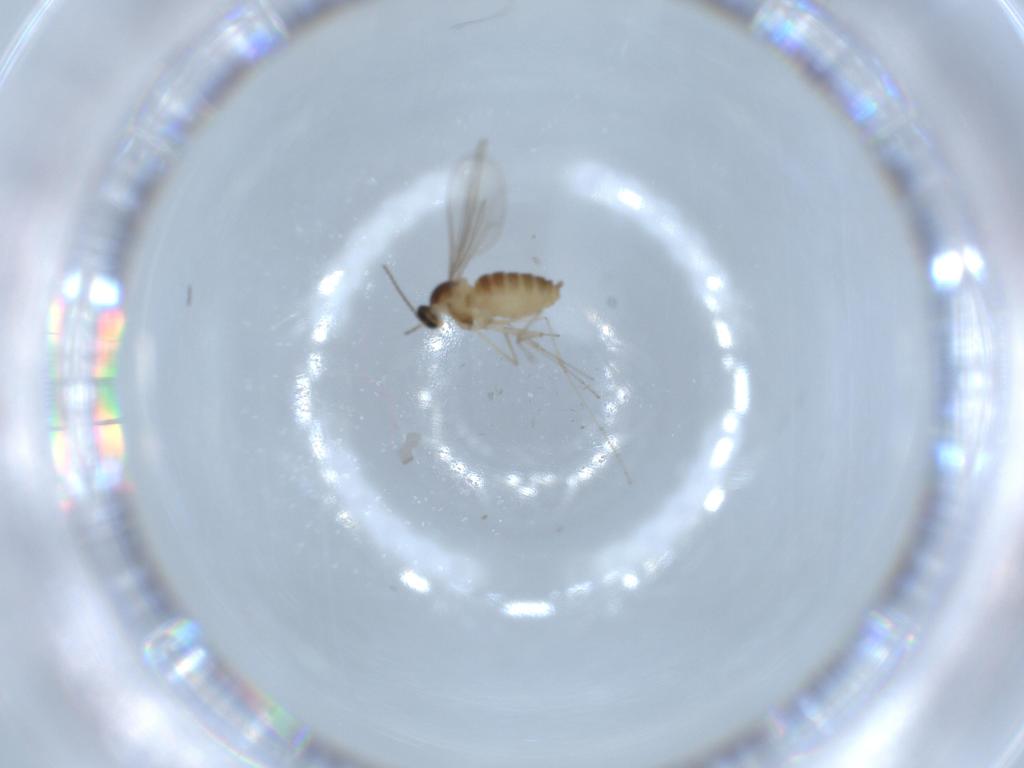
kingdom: Animalia
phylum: Arthropoda
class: Insecta
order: Diptera
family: Cecidomyiidae
